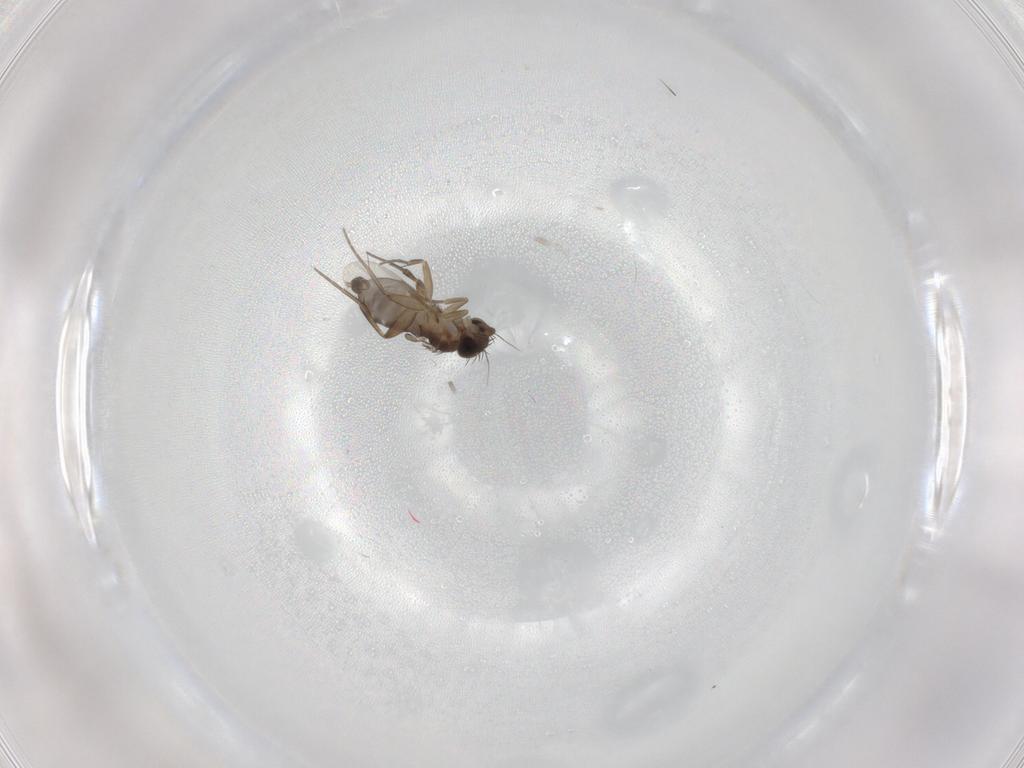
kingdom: Animalia
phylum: Arthropoda
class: Insecta
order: Diptera
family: Phoridae
